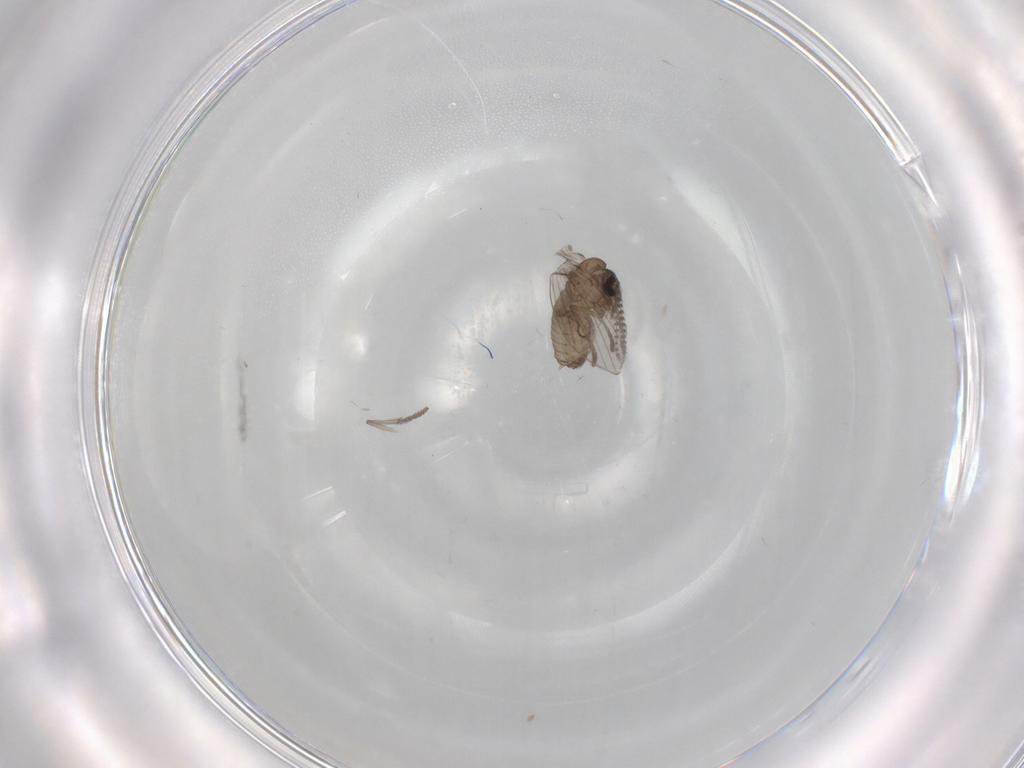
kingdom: Animalia
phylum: Arthropoda
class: Insecta
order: Diptera
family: Psychodidae
